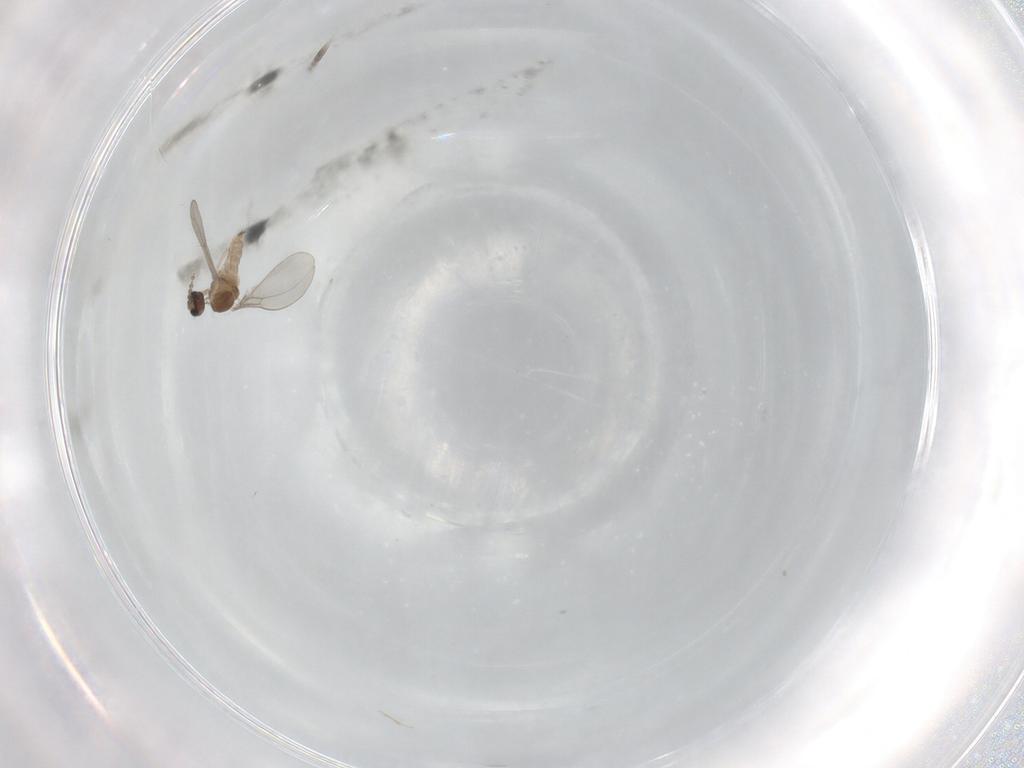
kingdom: Animalia
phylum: Arthropoda
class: Insecta
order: Diptera
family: Cecidomyiidae
